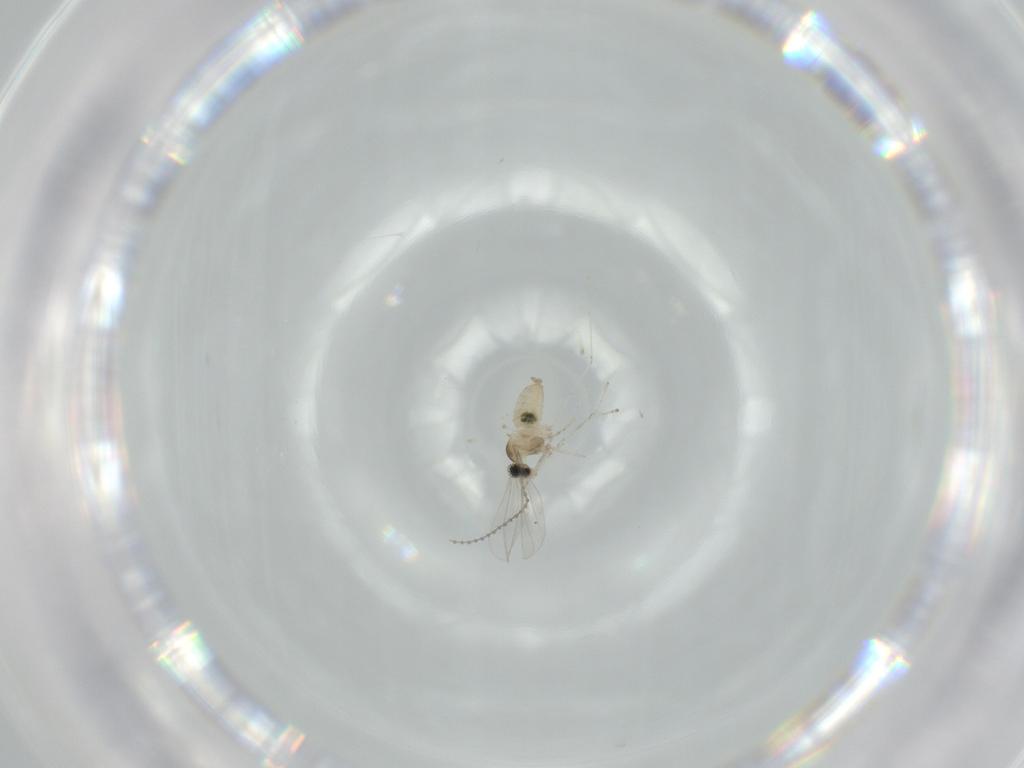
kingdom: Animalia
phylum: Arthropoda
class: Insecta
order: Diptera
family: Cecidomyiidae
